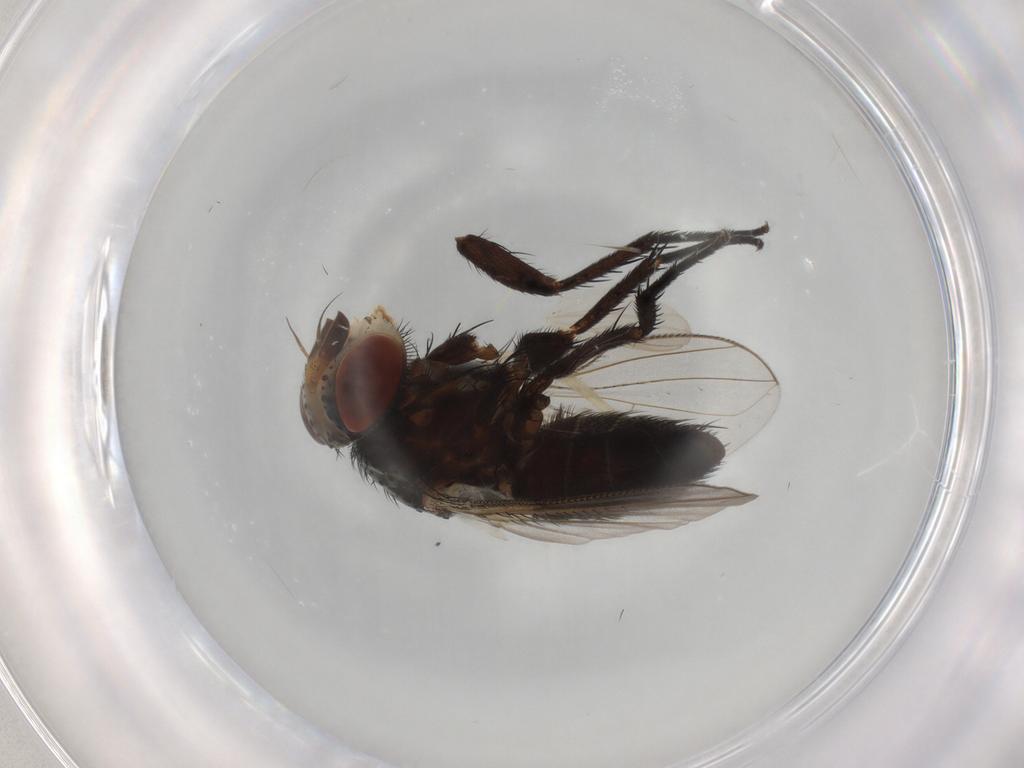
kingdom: Animalia
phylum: Arthropoda
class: Insecta
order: Diptera
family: Tachinidae
